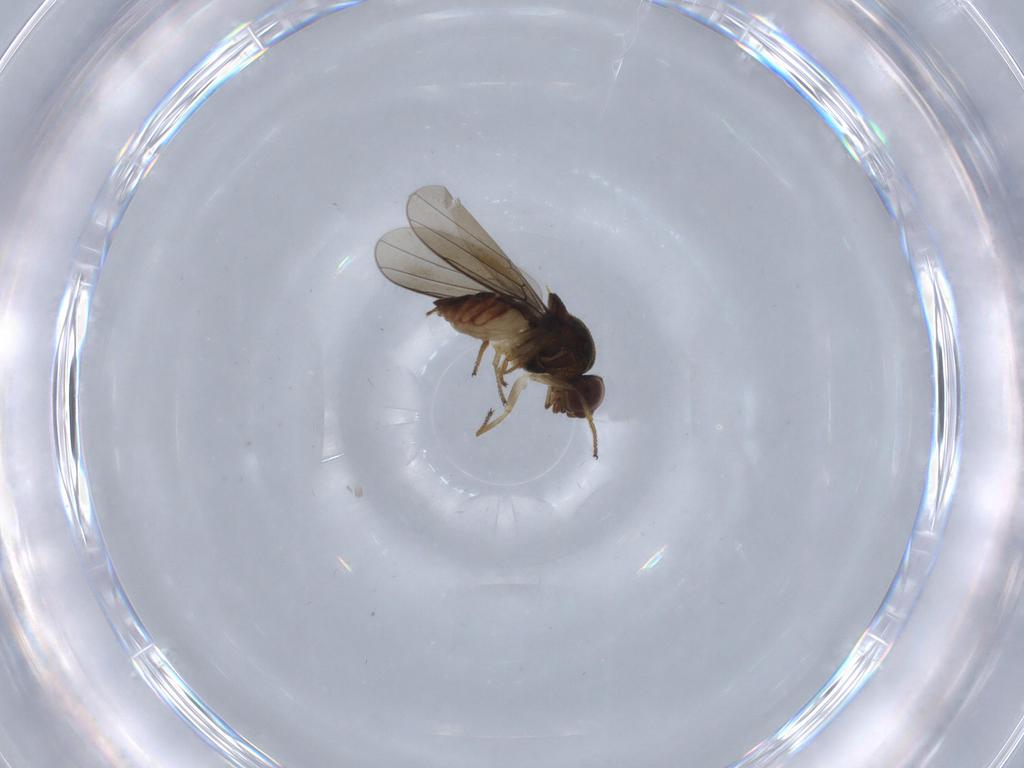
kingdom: Animalia
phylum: Arthropoda
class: Insecta
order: Diptera
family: Chloropidae
